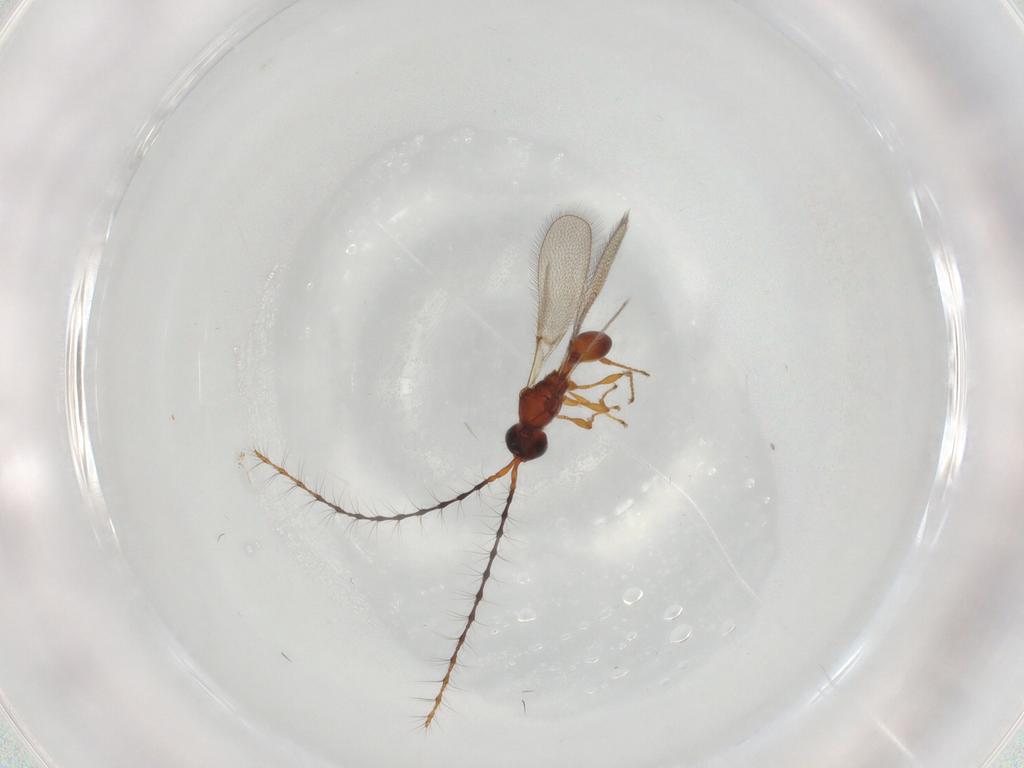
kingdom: Animalia
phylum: Arthropoda
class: Insecta
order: Hymenoptera
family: Diapriidae
